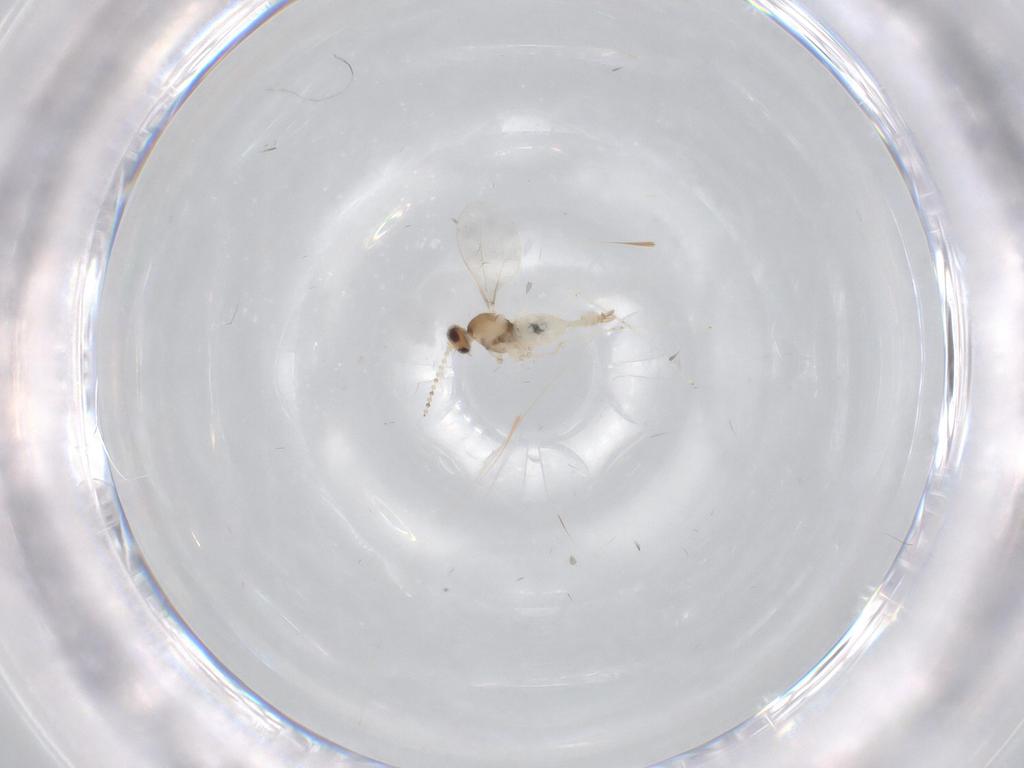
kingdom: Animalia
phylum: Arthropoda
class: Insecta
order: Diptera
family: Cecidomyiidae
